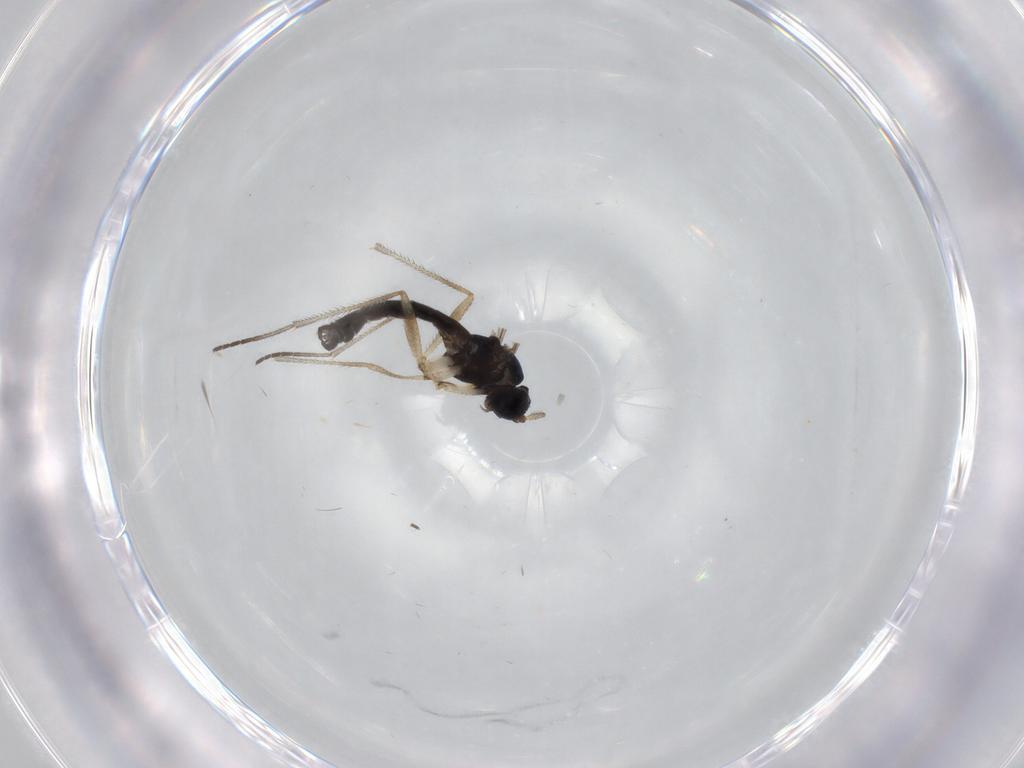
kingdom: Animalia
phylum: Arthropoda
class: Insecta
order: Diptera
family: Sciaridae
